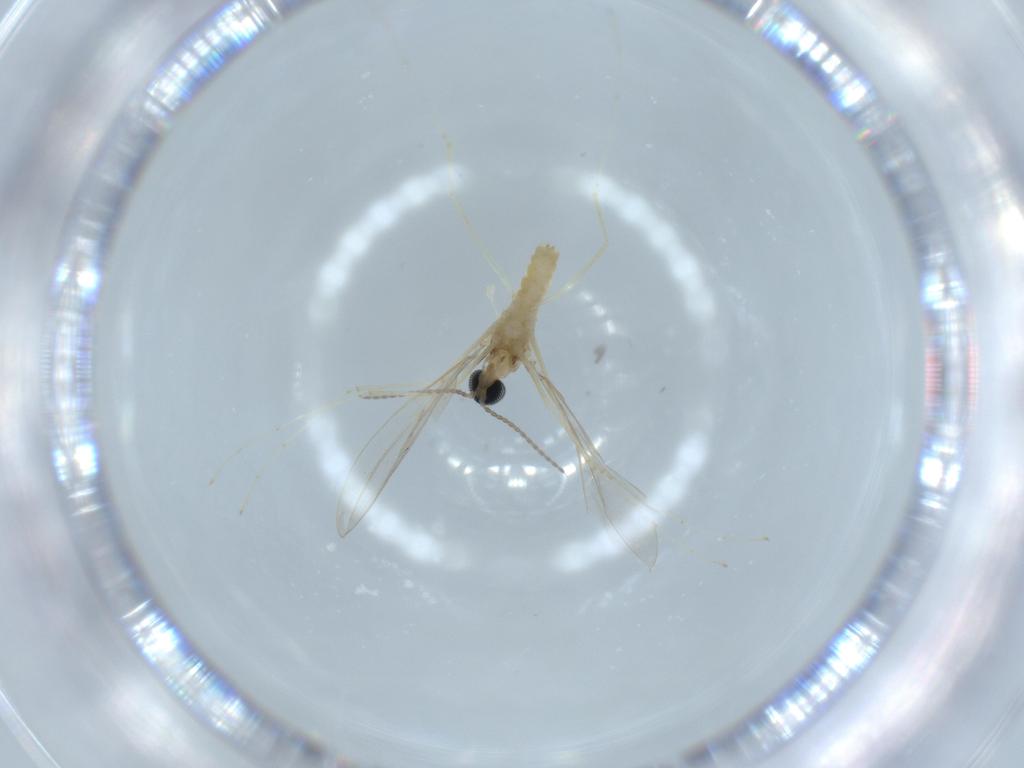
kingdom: Animalia
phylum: Arthropoda
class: Insecta
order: Diptera
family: Cecidomyiidae
